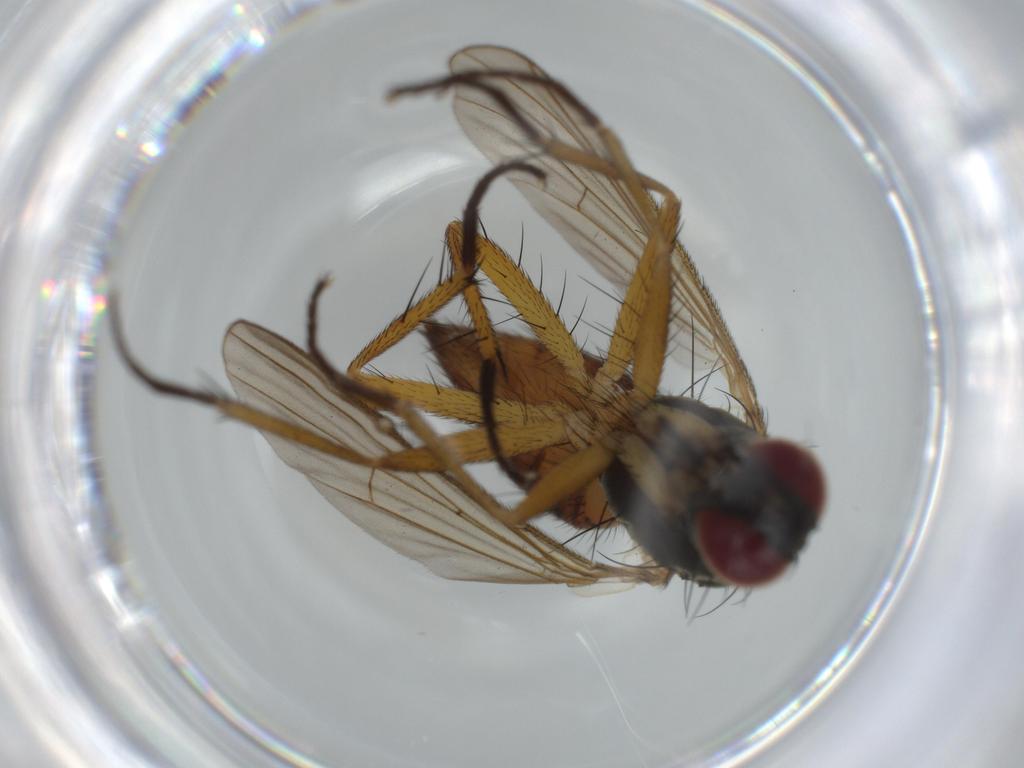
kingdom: Animalia
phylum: Arthropoda
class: Insecta
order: Diptera
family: Muscidae
